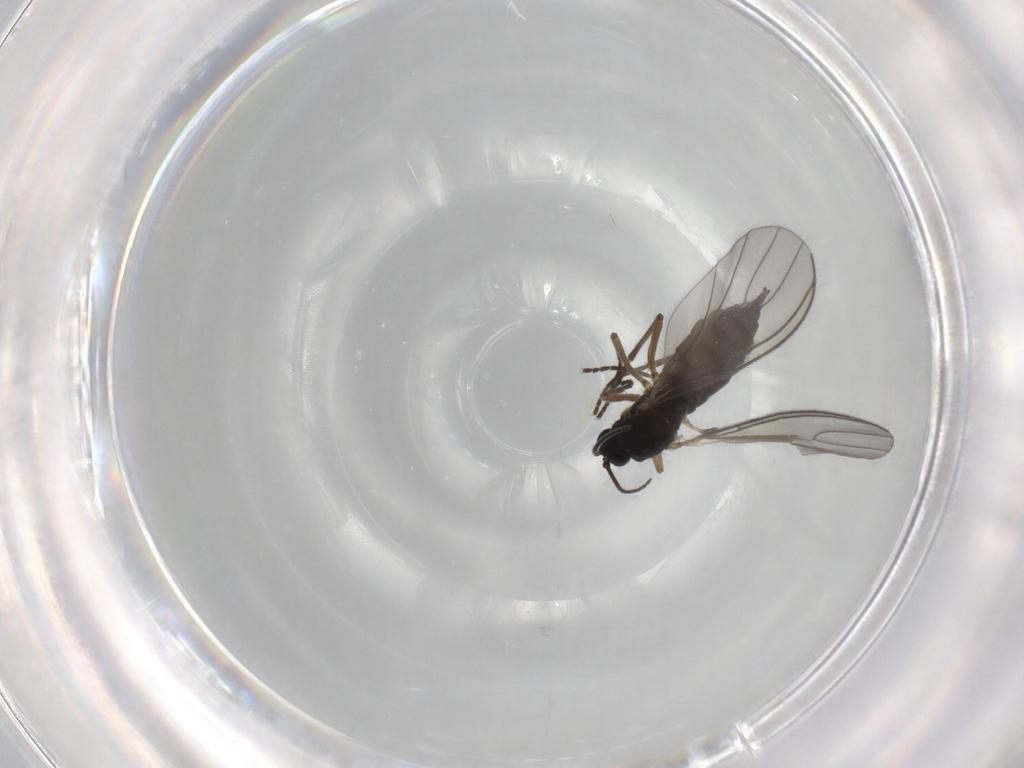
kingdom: Animalia
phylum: Arthropoda
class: Insecta
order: Diptera
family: Sciaridae
